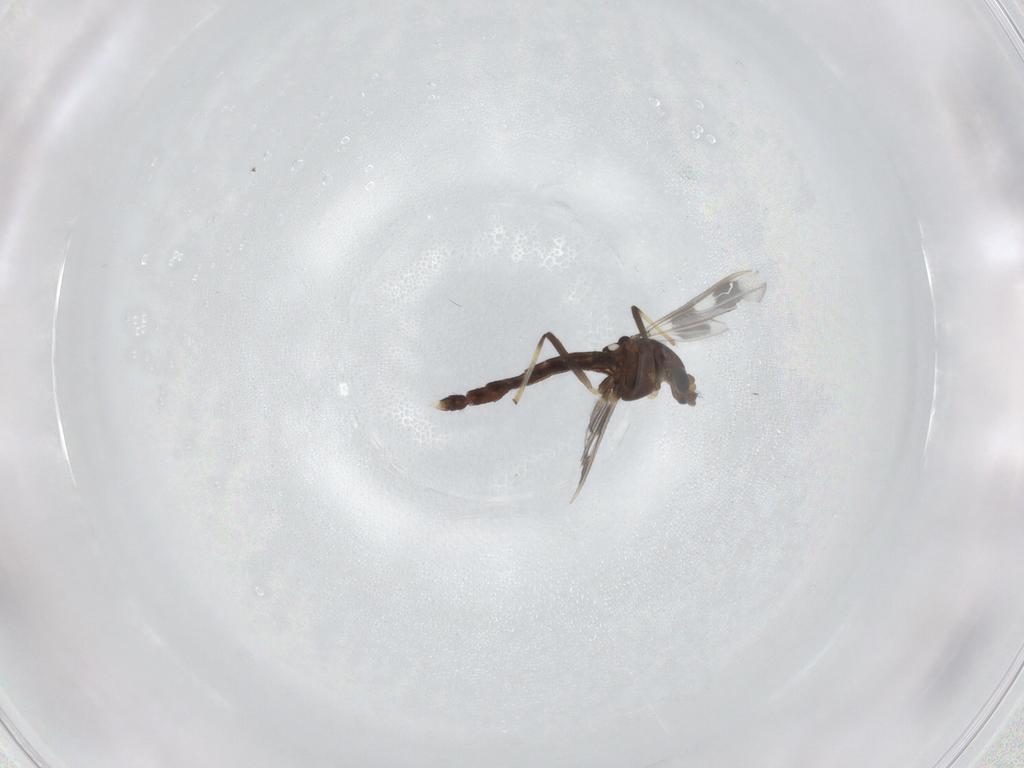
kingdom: Animalia
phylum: Arthropoda
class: Insecta
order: Diptera
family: Chironomidae
